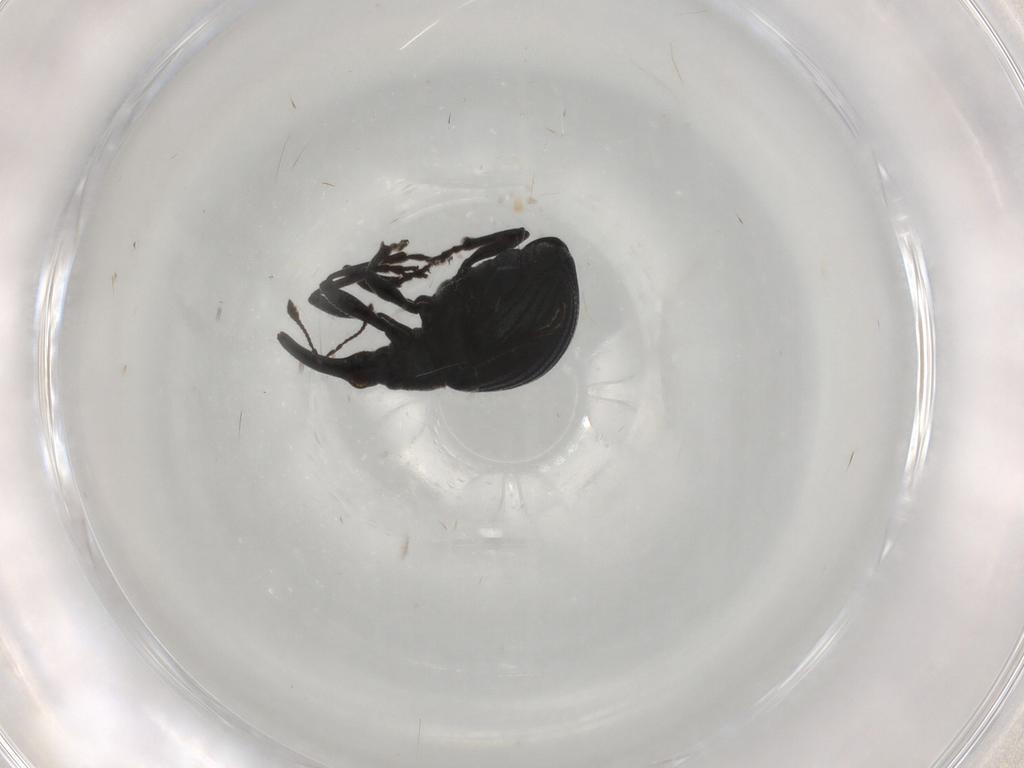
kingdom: Animalia
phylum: Arthropoda
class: Insecta
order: Coleoptera
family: Brentidae
